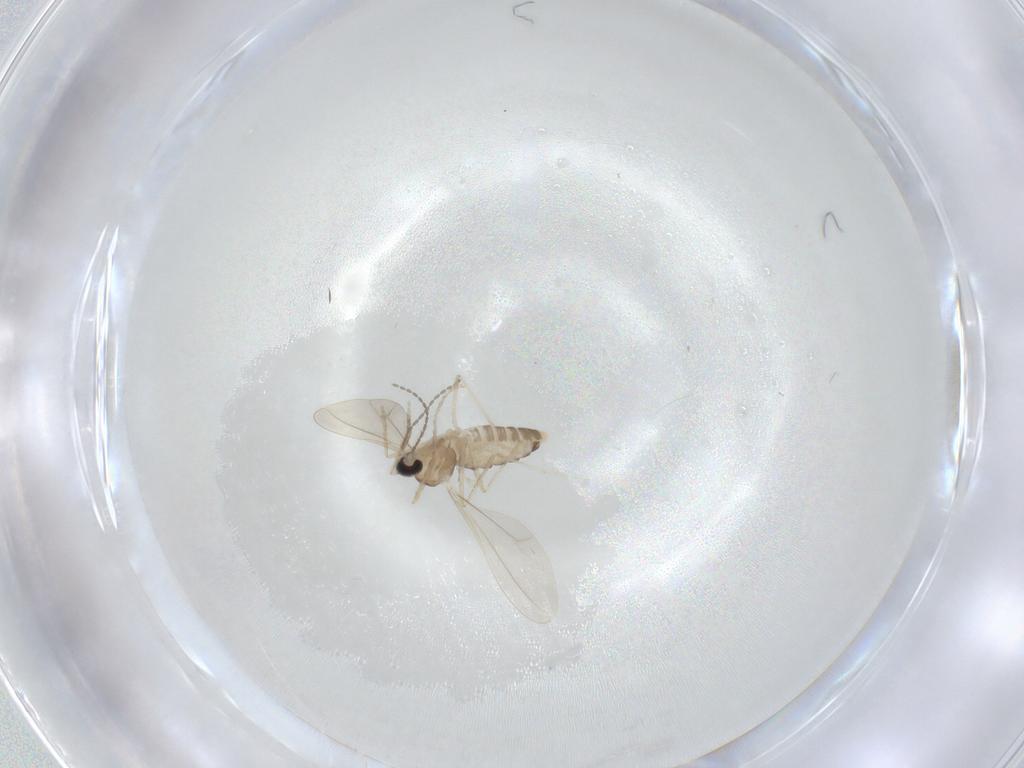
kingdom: Animalia
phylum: Arthropoda
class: Insecta
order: Diptera
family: Cecidomyiidae
